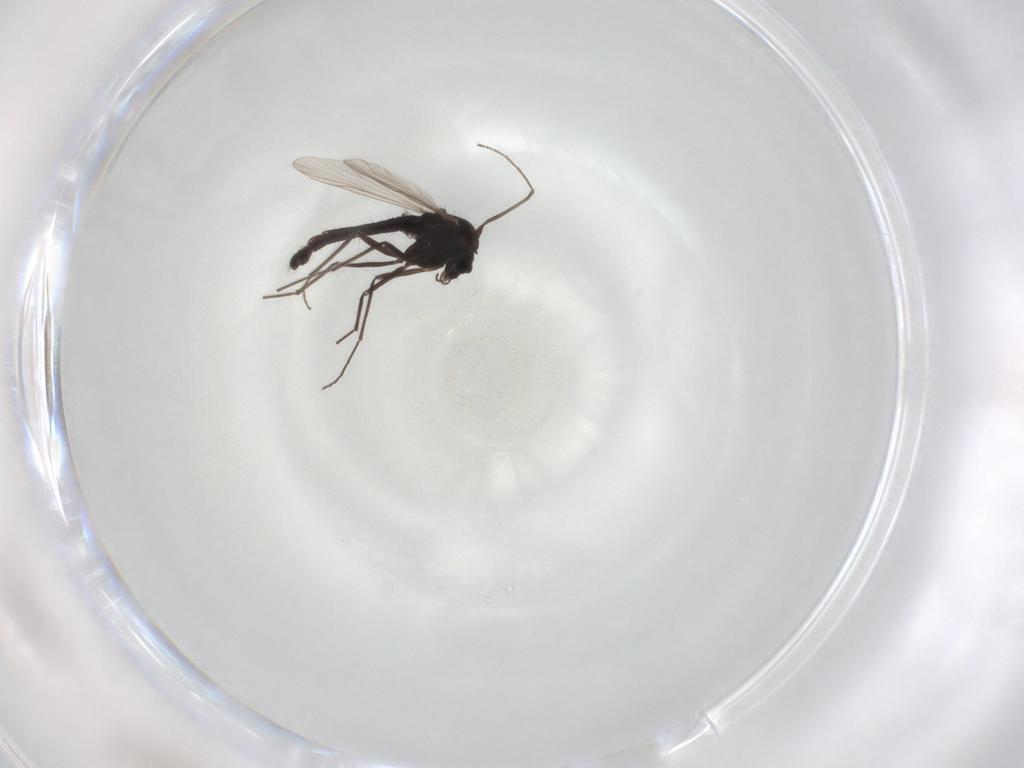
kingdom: Animalia
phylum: Arthropoda
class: Insecta
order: Diptera
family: Chironomidae
